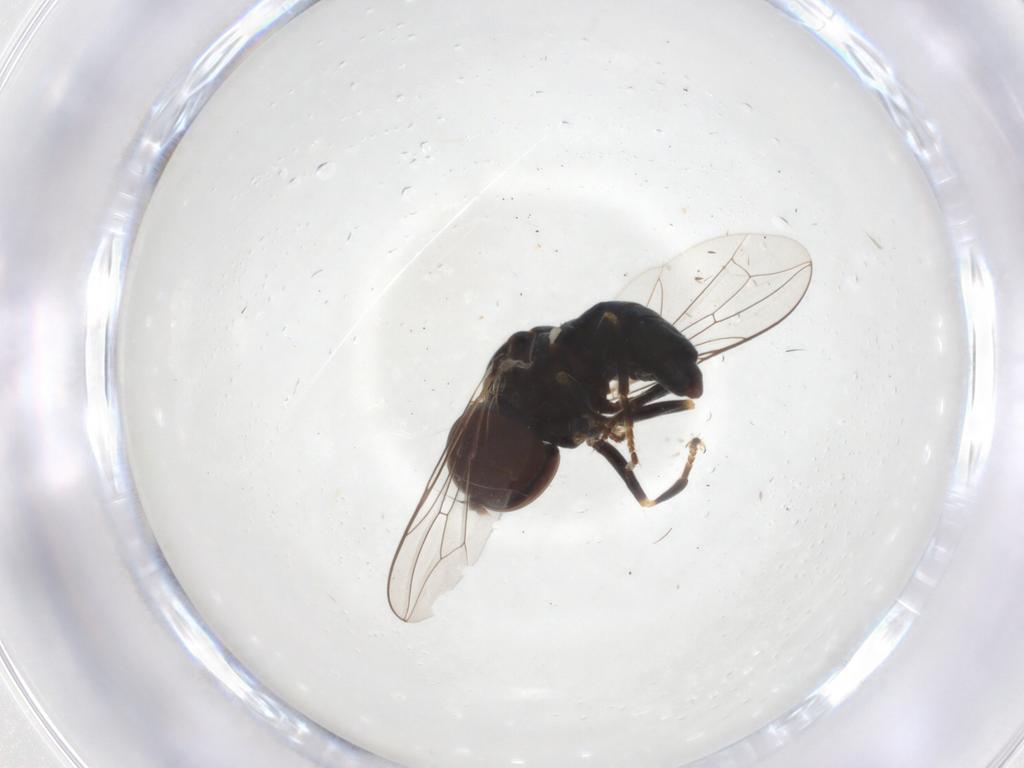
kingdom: Animalia
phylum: Arthropoda
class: Insecta
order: Diptera
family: Pipunculidae
